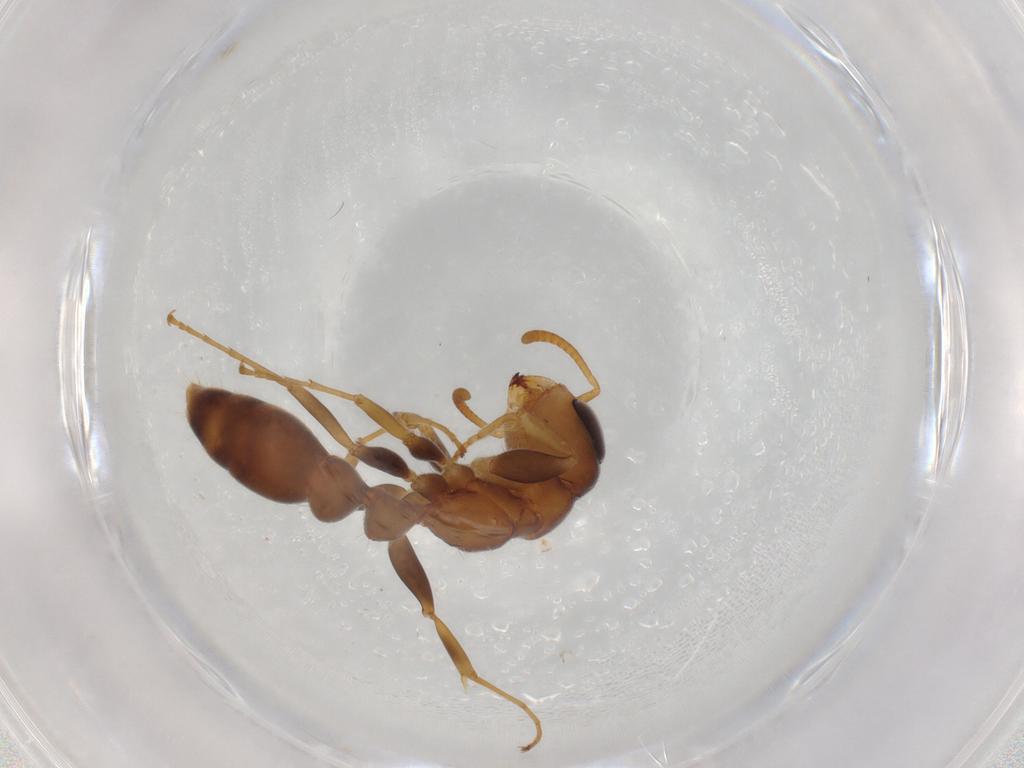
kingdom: Animalia
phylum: Arthropoda
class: Insecta
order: Hymenoptera
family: Formicidae
